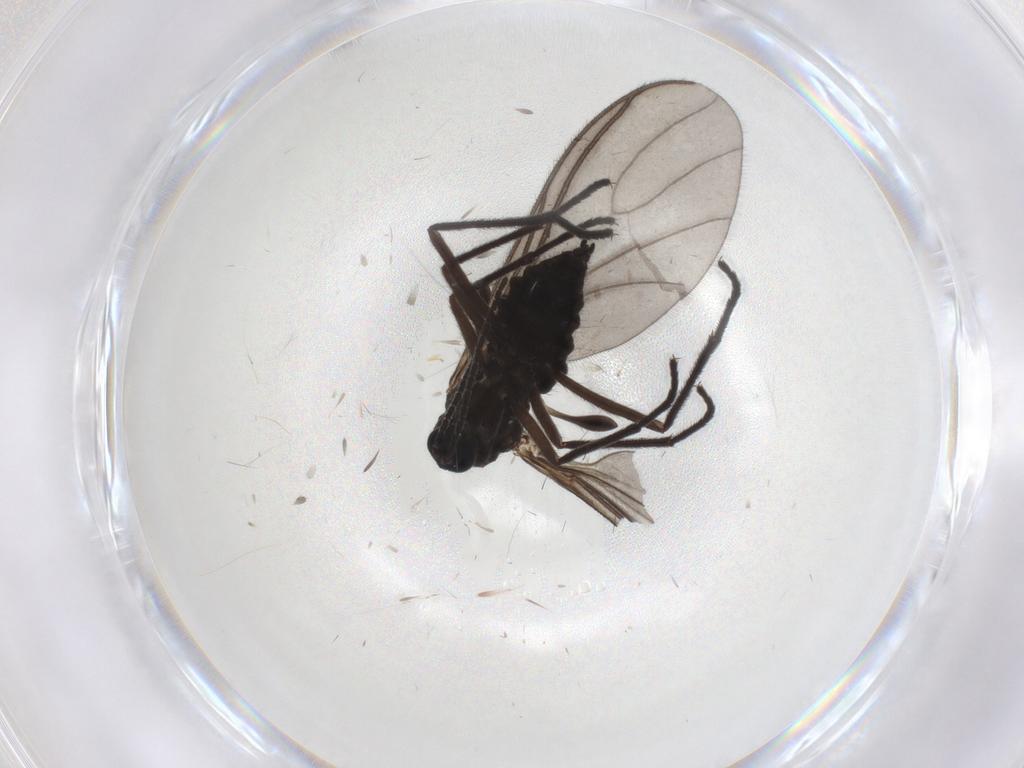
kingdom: Animalia
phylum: Arthropoda
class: Insecta
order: Diptera
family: Sciaridae
